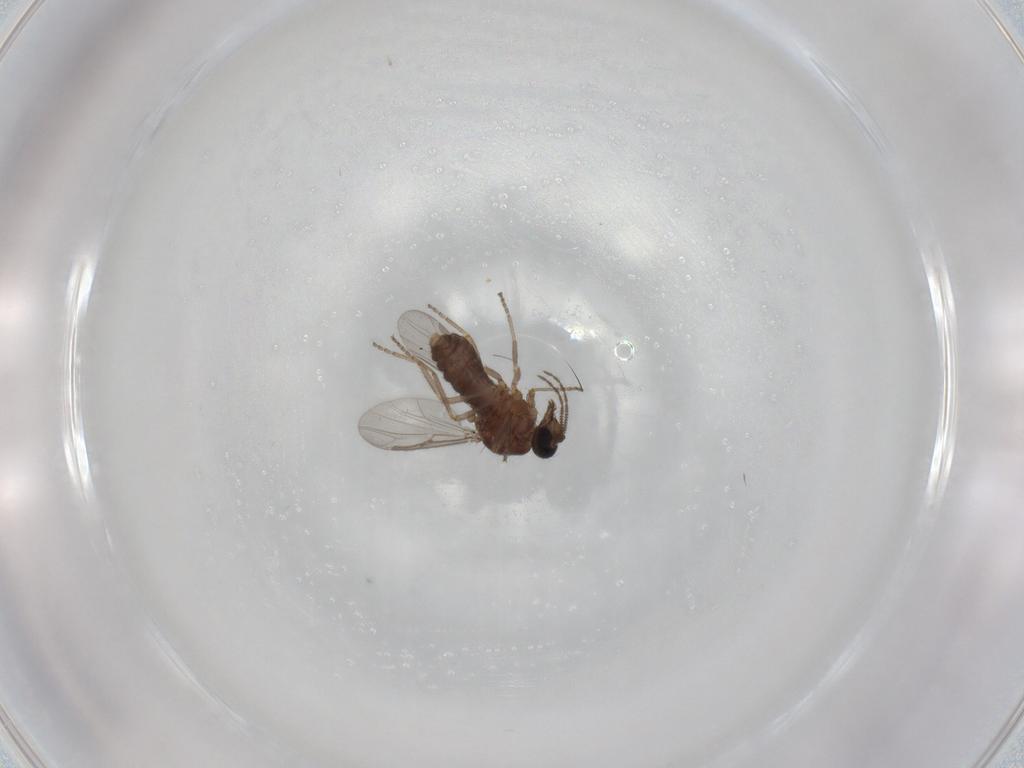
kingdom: Animalia
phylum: Arthropoda
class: Insecta
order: Diptera
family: Ceratopogonidae
